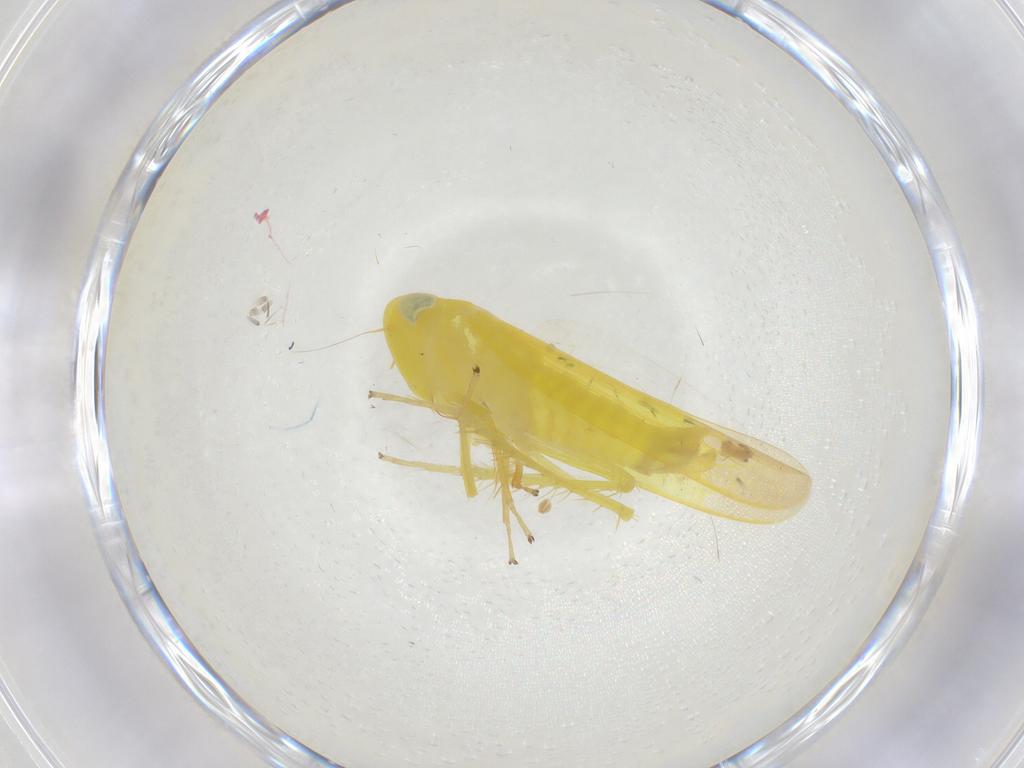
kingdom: Animalia
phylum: Arthropoda
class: Insecta
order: Hemiptera
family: Cicadellidae
